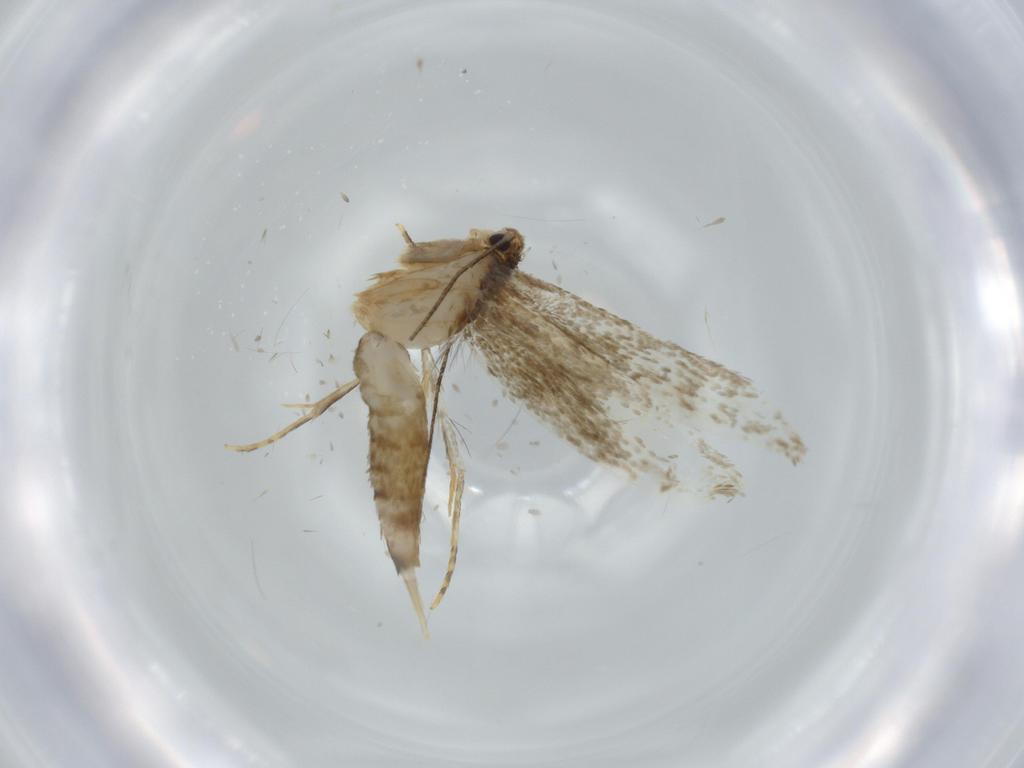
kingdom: Animalia
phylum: Arthropoda
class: Insecta
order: Lepidoptera
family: Tineidae
